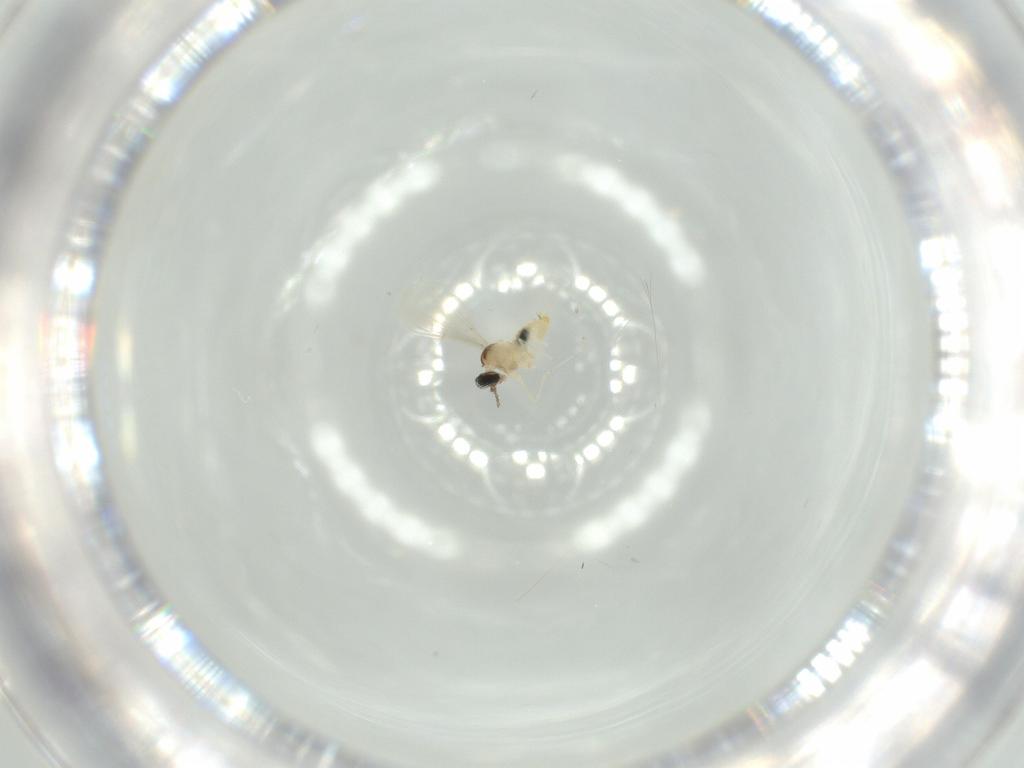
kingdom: Animalia
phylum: Arthropoda
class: Insecta
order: Diptera
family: Cecidomyiidae
